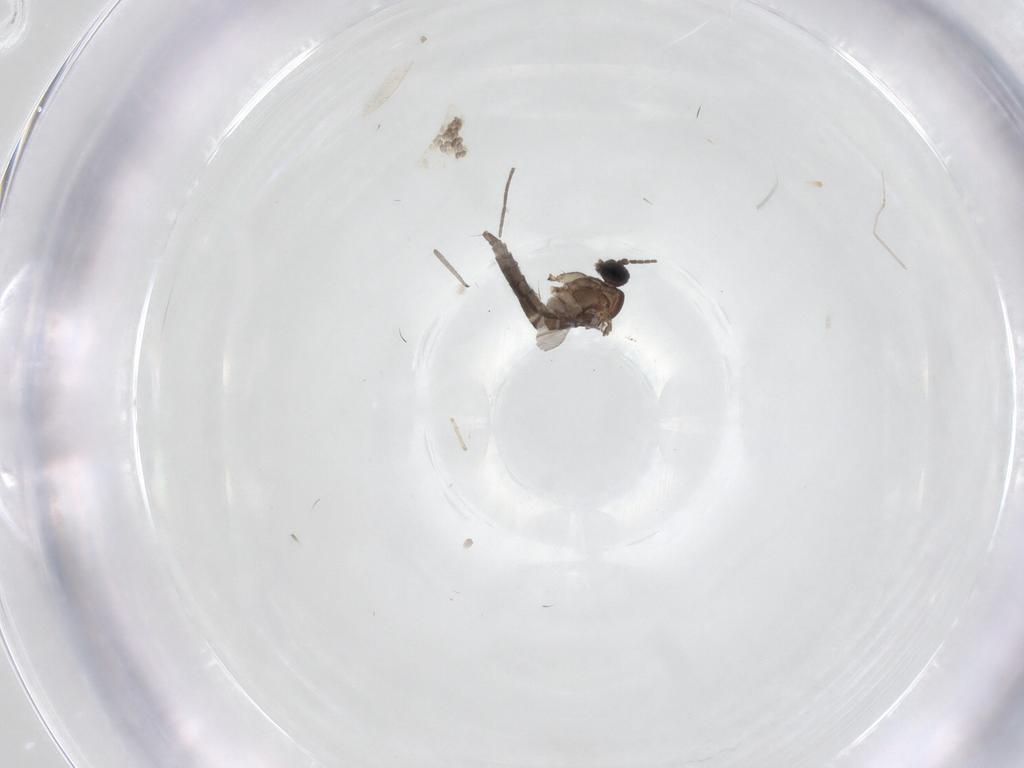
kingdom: Animalia
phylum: Arthropoda
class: Insecta
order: Diptera
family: Sciaridae
